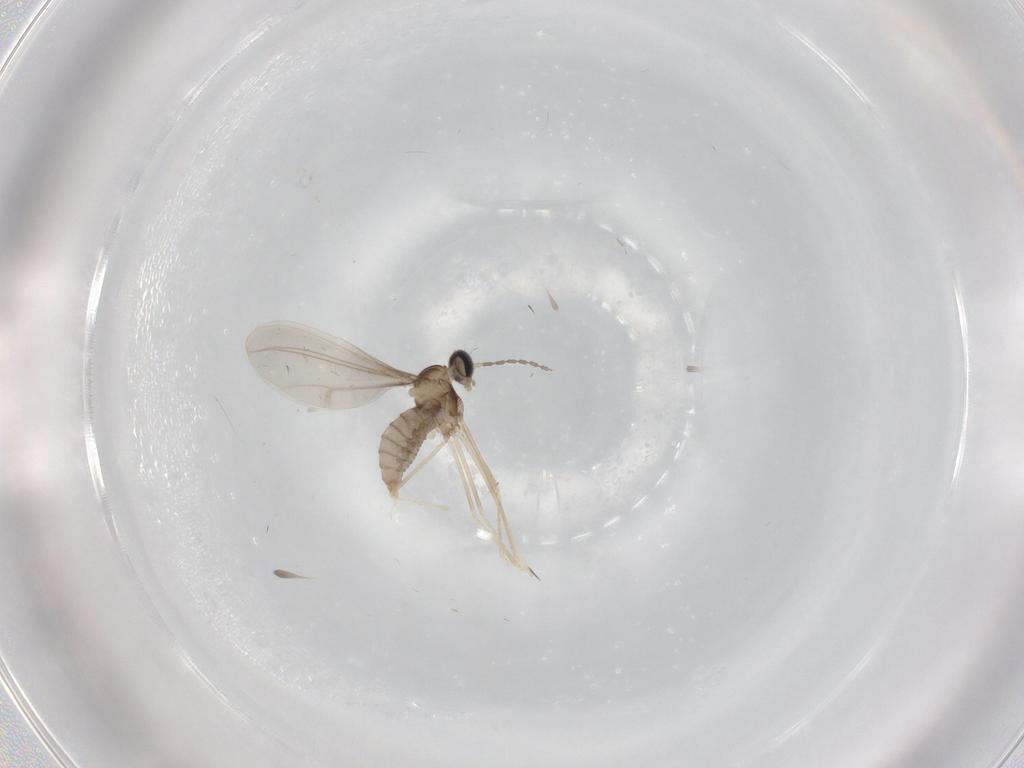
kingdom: Animalia
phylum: Arthropoda
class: Insecta
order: Diptera
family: Cecidomyiidae
